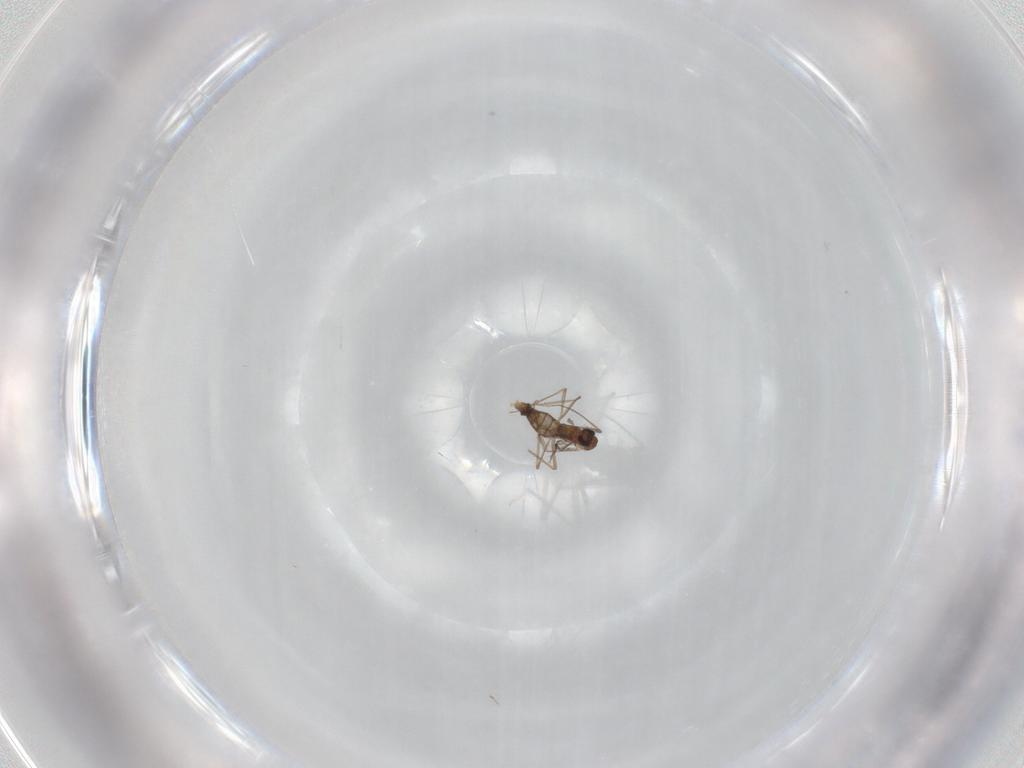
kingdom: Animalia
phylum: Arthropoda
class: Insecta
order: Diptera
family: Chironomidae
